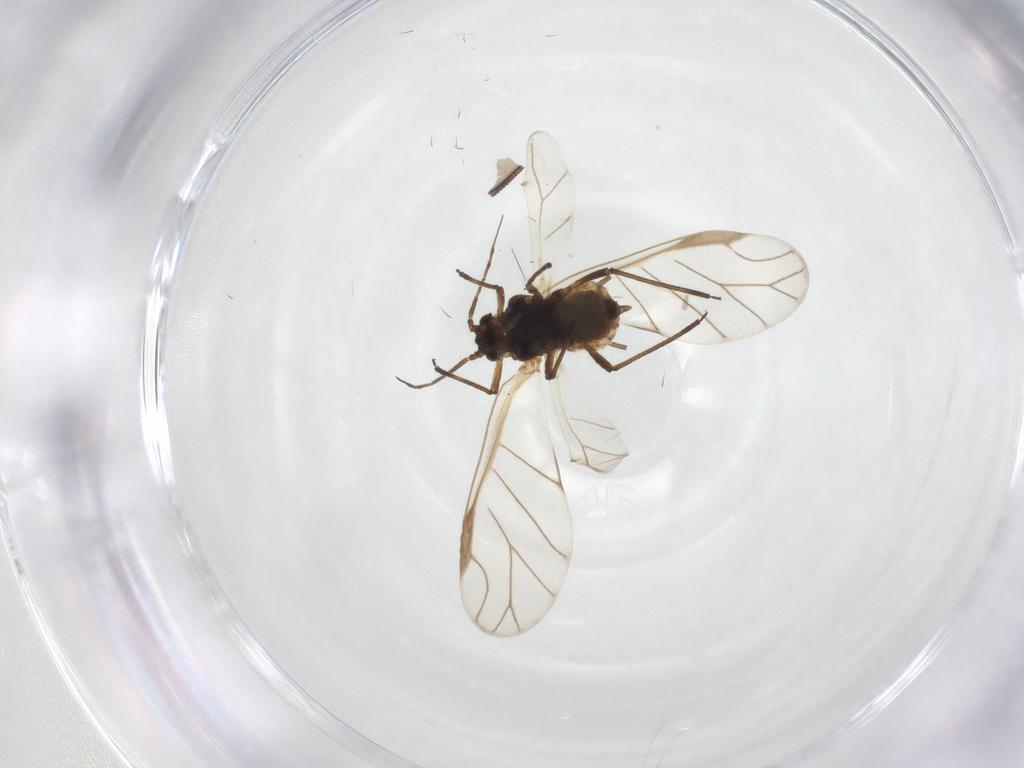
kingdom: Animalia
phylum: Arthropoda
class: Insecta
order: Hemiptera
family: Aphididae
